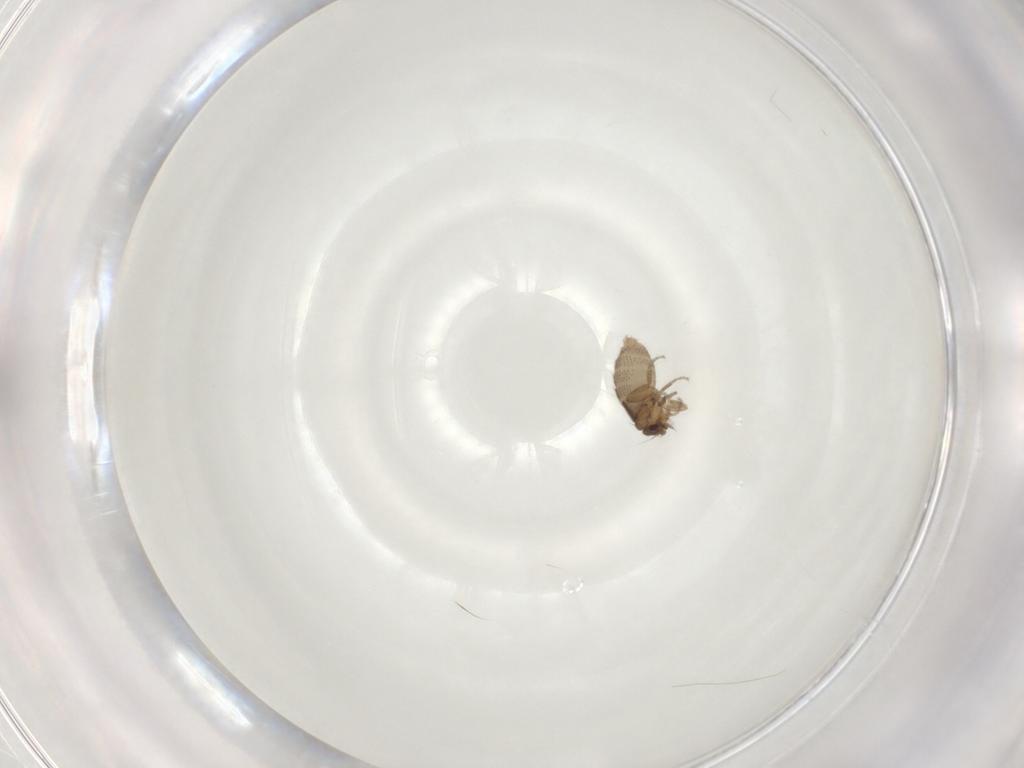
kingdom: Animalia
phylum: Arthropoda
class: Insecta
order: Diptera
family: Phoridae
